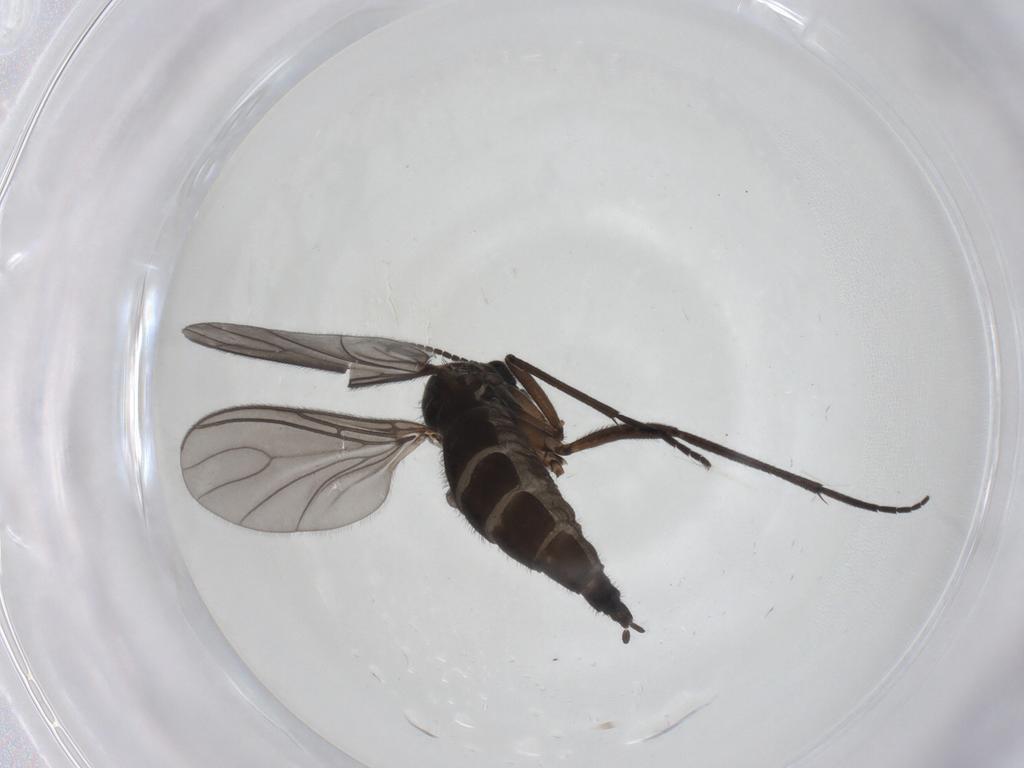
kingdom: Animalia
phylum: Arthropoda
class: Insecta
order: Diptera
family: Sciaridae
